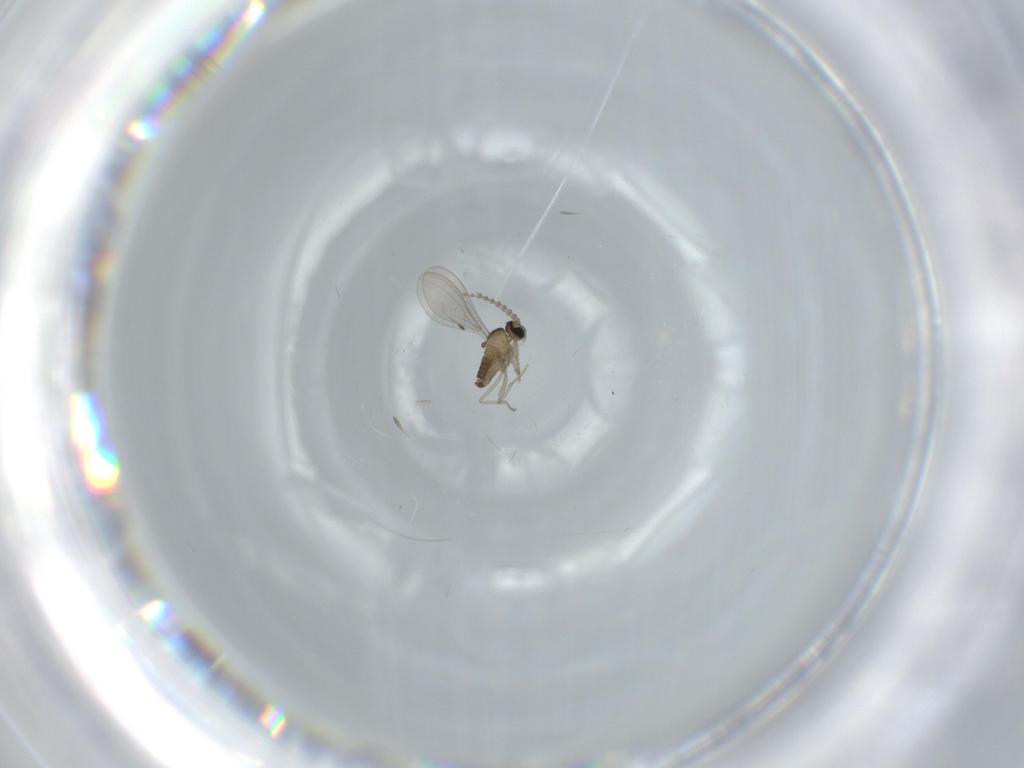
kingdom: Animalia
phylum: Arthropoda
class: Insecta
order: Diptera
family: Cecidomyiidae
